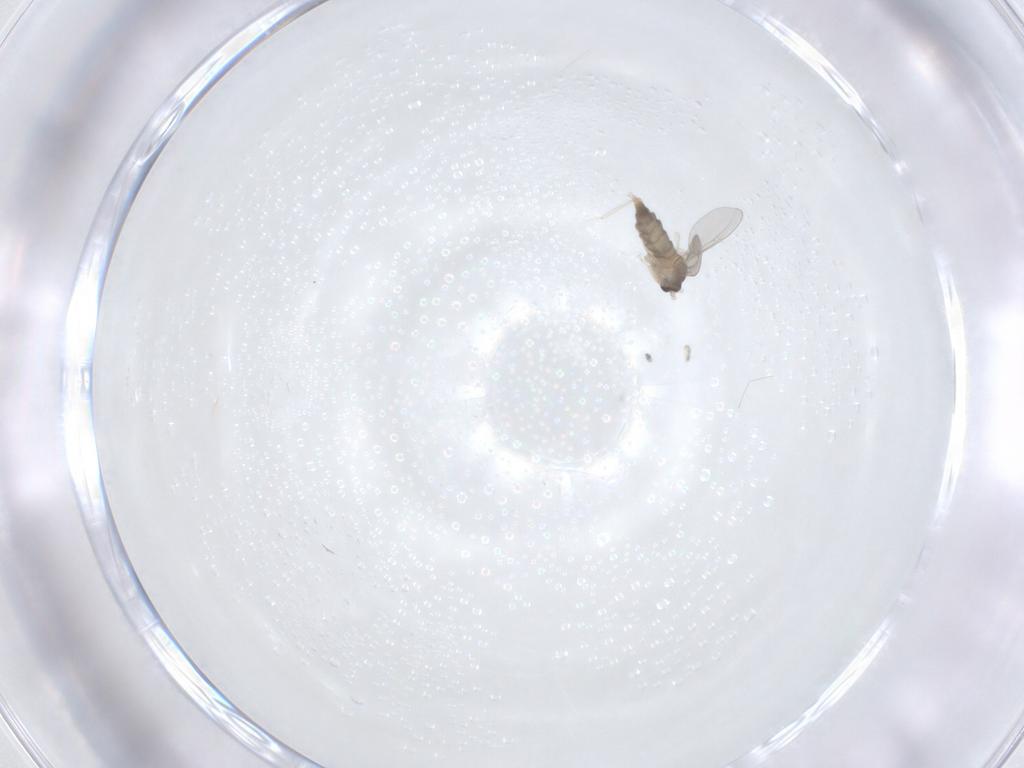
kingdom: Animalia
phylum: Arthropoda
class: Insecta
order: Diptera
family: Cecidomyiidae
